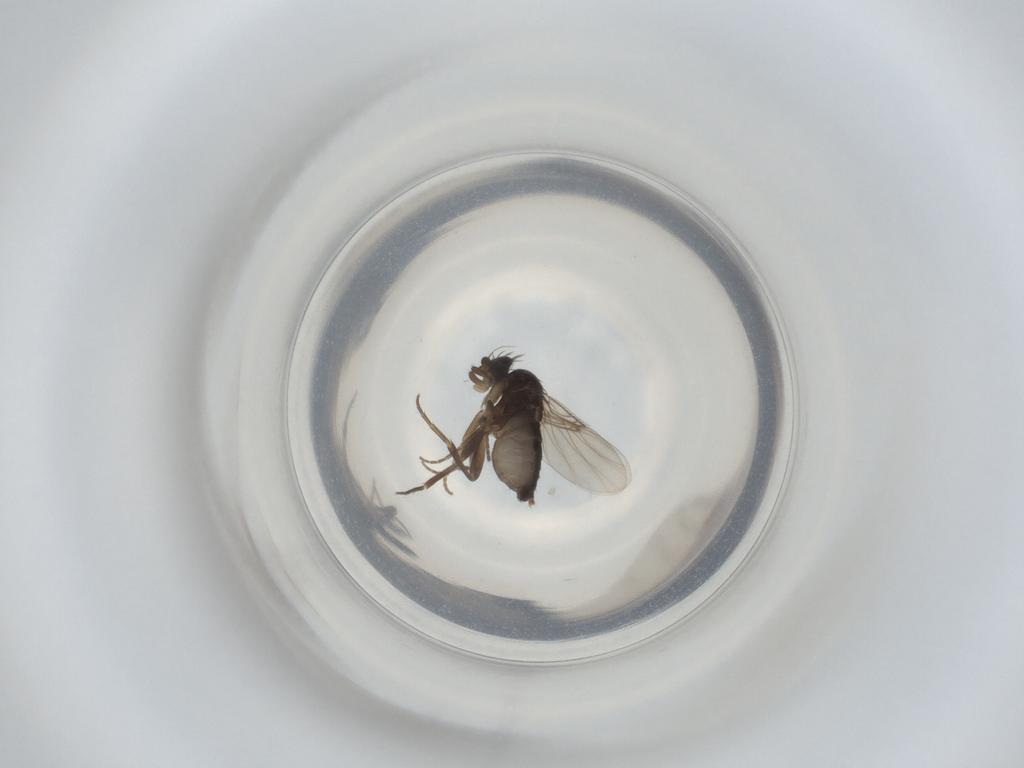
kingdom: Animalia
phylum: Arthropoda
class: Insecta
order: Diptera
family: Phoridae
